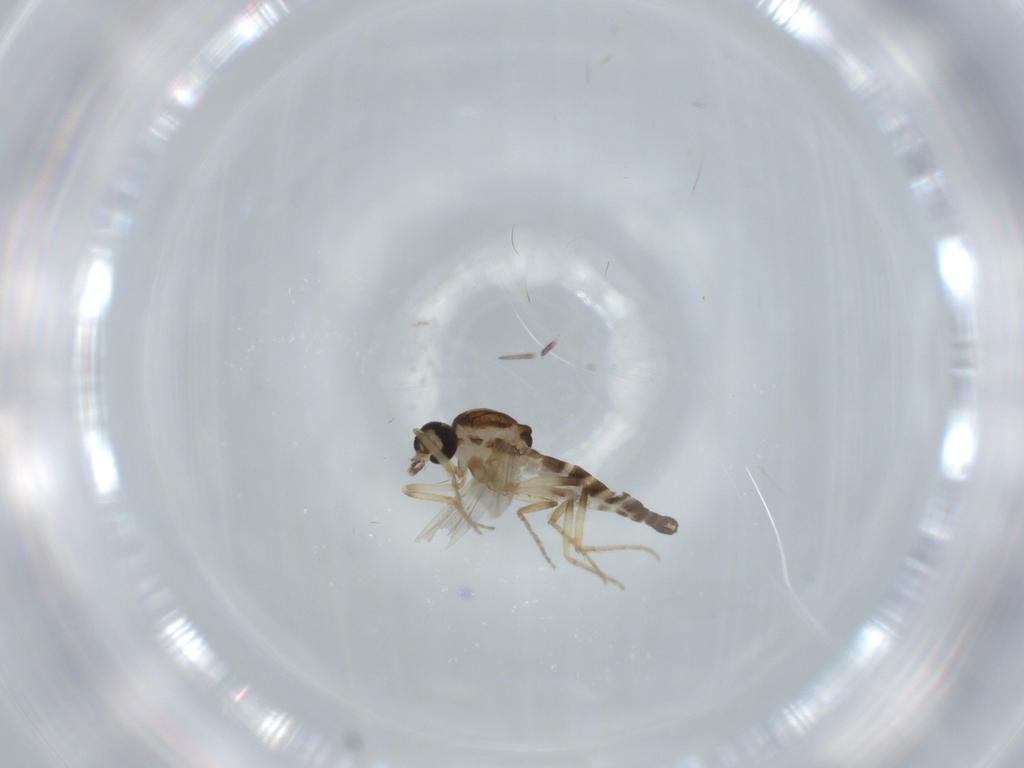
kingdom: Animalia
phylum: Arthropoda
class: Insecta
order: Diptera
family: Ceratopogonidae
